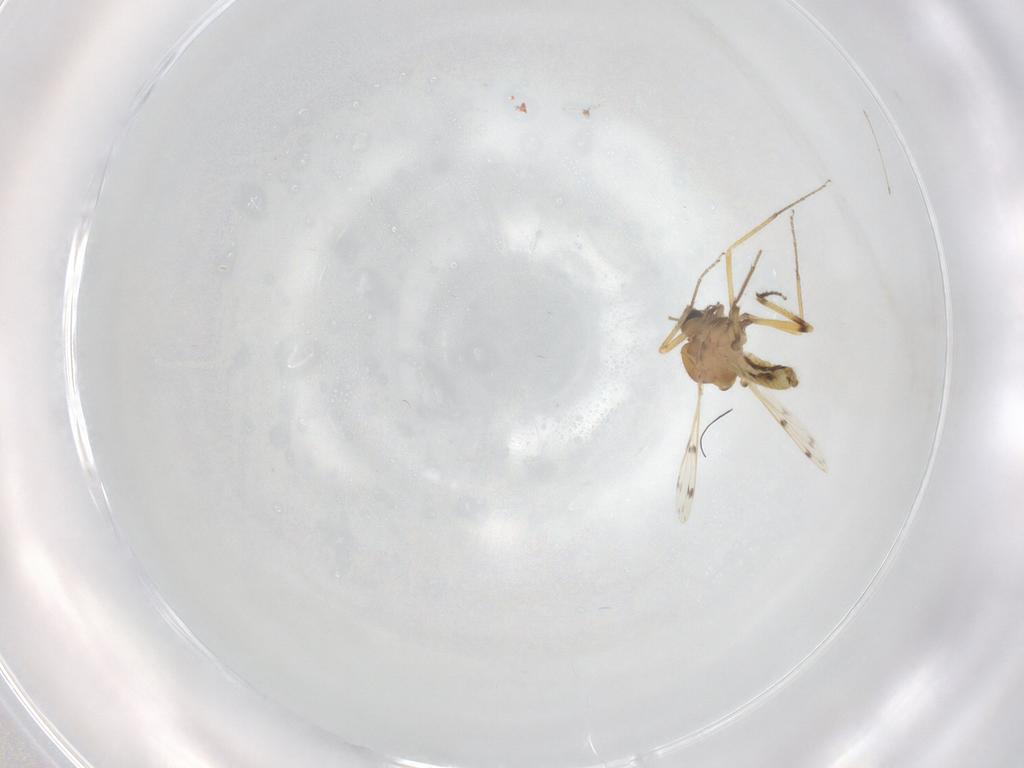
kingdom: Animalia
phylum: Arthropoda
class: Insecta
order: Diptera
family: Ceratopogonidae
